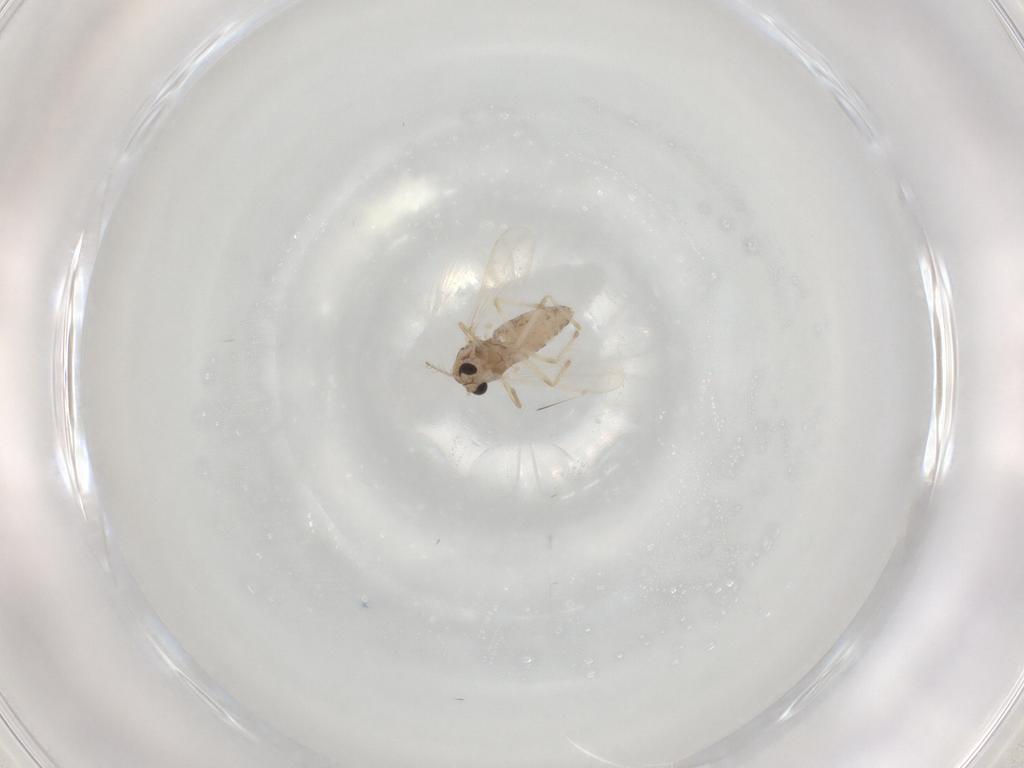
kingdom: Animalia
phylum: Arthropoda
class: Insecta
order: Diptera
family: Chironomidae
